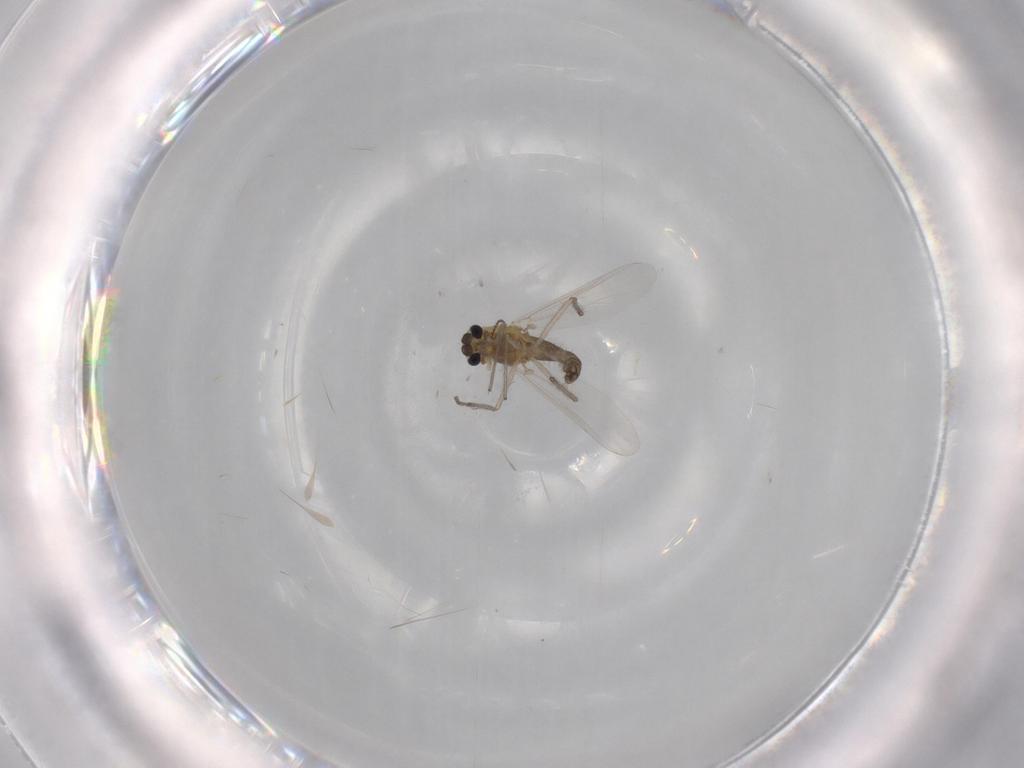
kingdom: Animalia
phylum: Arthropoda
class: Insecta
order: Diptera
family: Chironomidae
